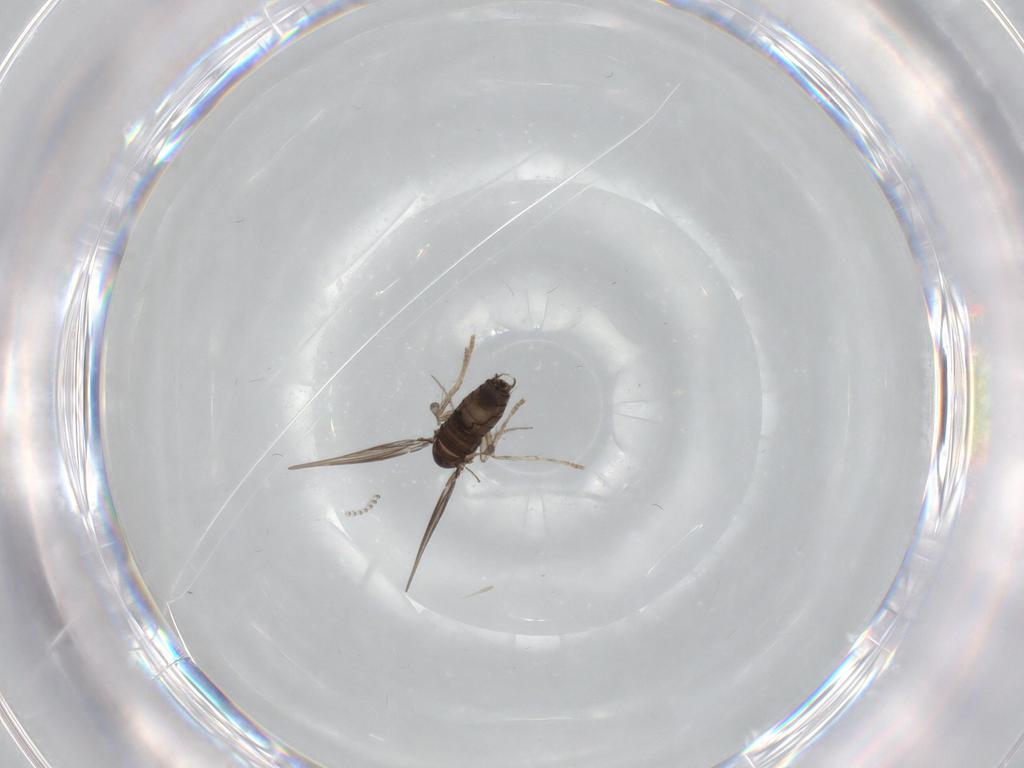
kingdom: Animalia
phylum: Arthropoda
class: Insecta
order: Diptera
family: Psychodidae
